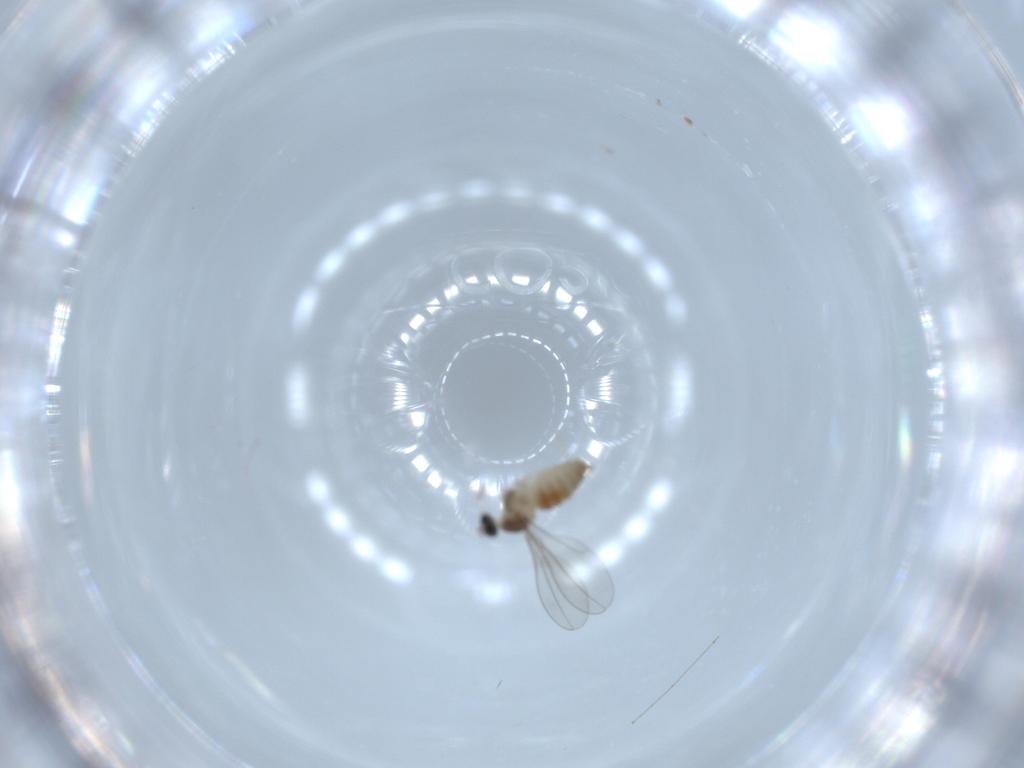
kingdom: Animalia
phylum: Arthropoda
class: Insecta
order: Diptera
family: Cecidomyiidae
